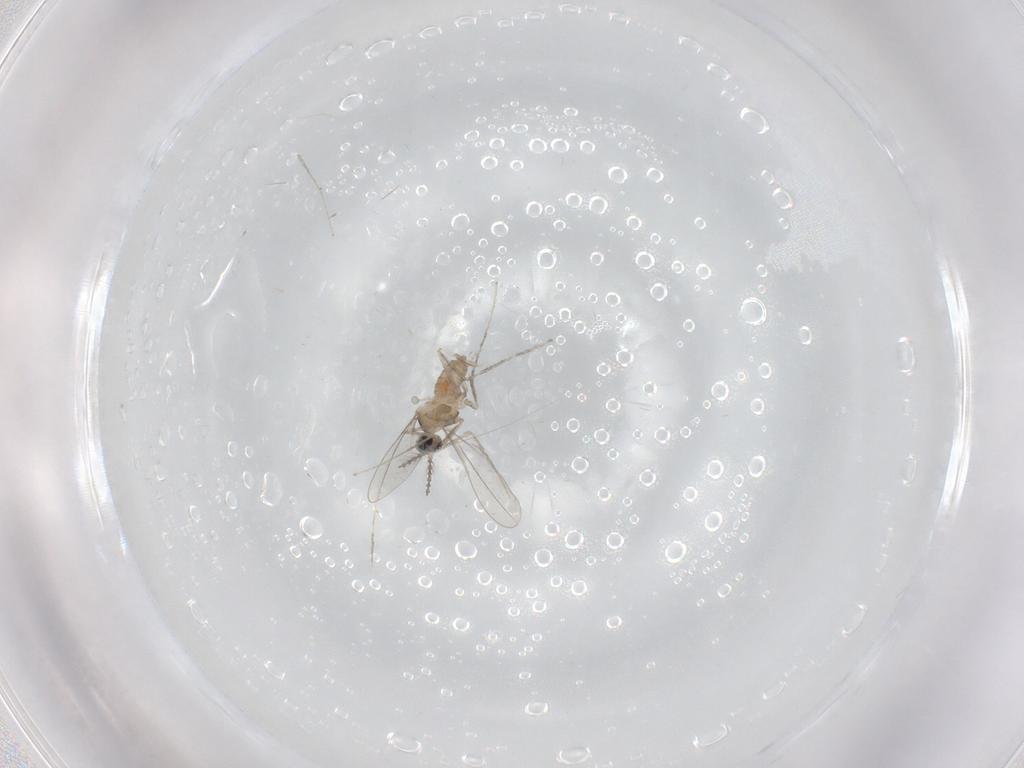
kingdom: Animalia
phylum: Arthropoda
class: Insecta
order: Diptera
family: Cecidomyiidae
